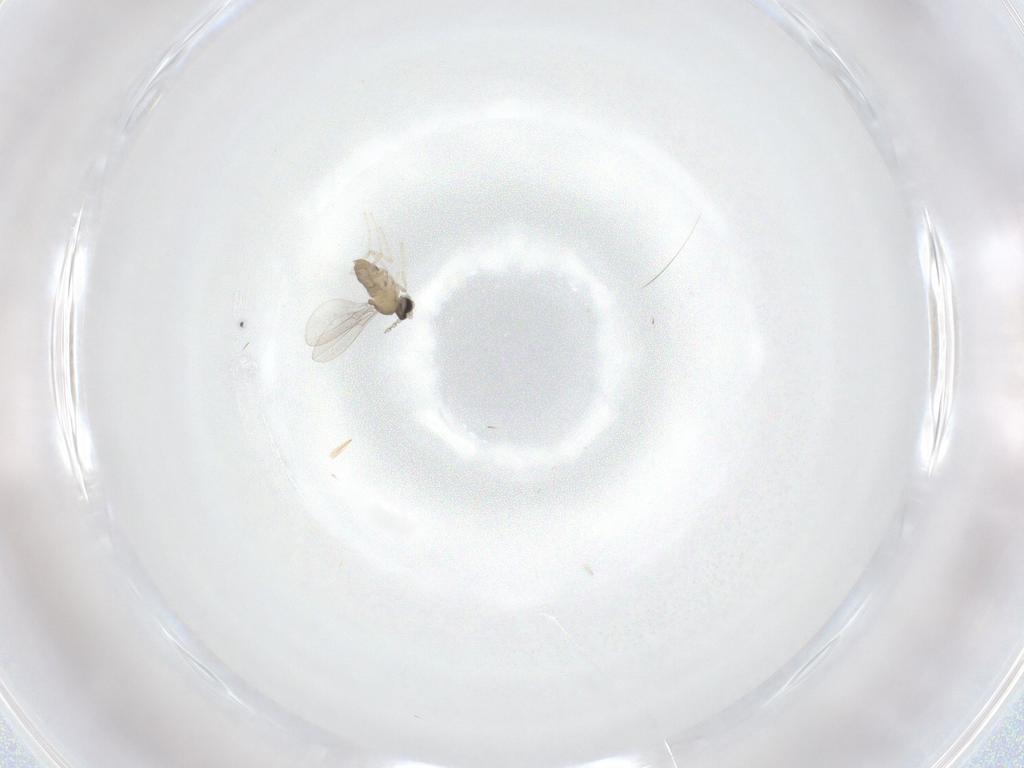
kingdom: Animalia
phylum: Arthropoda
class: Insecta
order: Diptera
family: Cecidomyiidae
